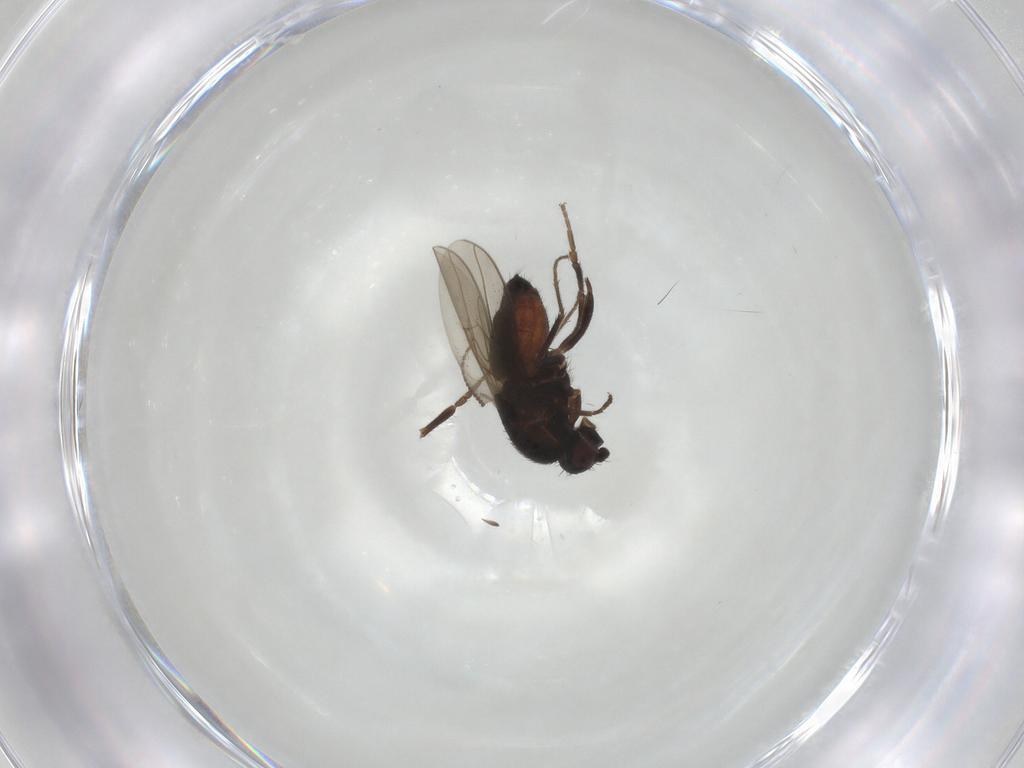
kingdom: Animalia
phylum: Arthropoda
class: Insecta
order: Diptera
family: Sphaeroceridae
